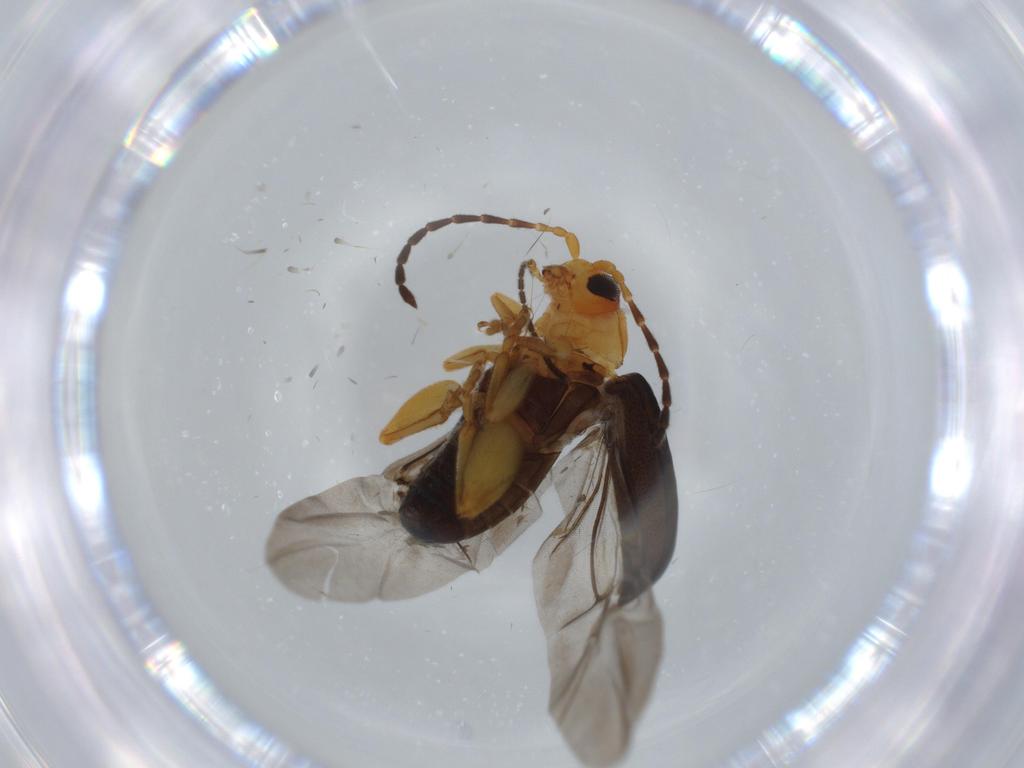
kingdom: Animalia
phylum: Arthropoda
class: Insecta
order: Coleoptera
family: Chrysomelidae
